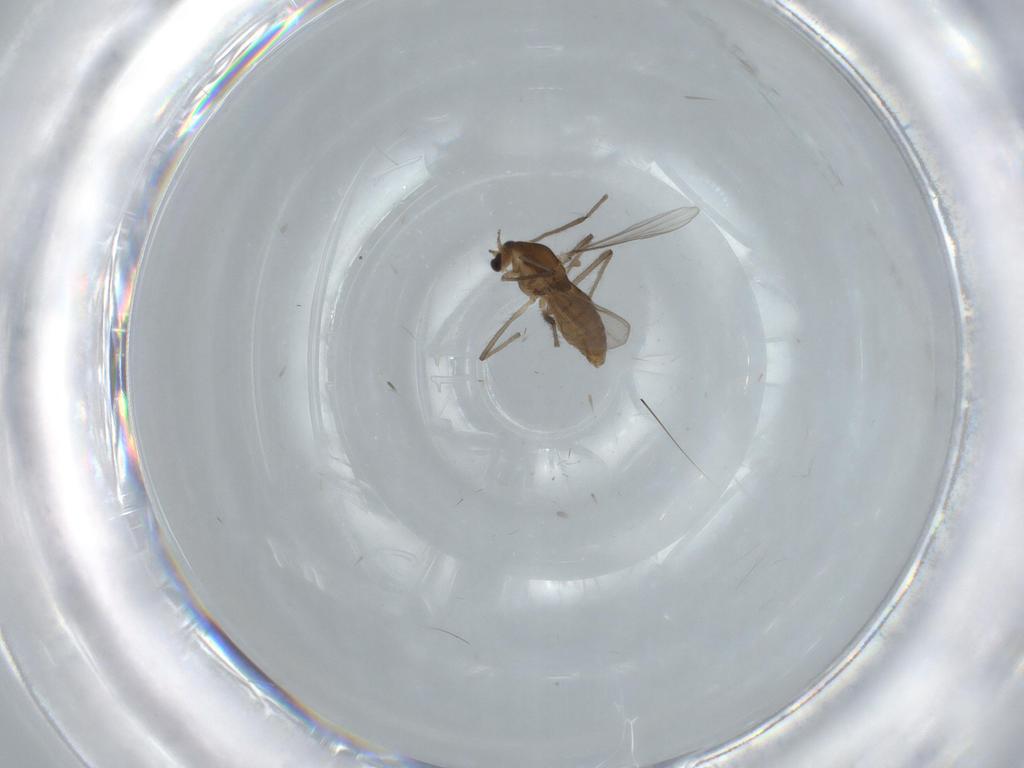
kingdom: Animalia
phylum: Arthropoda
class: Insecta
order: Diptera
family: Chironomidae
